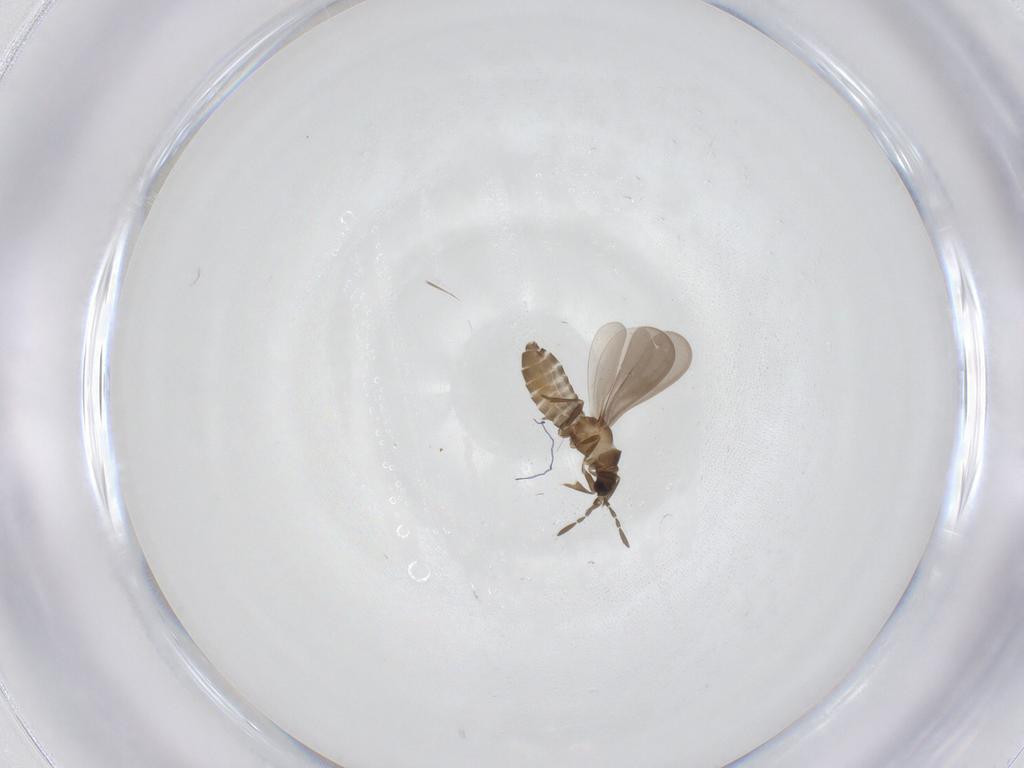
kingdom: Animalia
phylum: Arthropoda
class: Insecta
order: Hemiptera
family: Enicocephalidae
